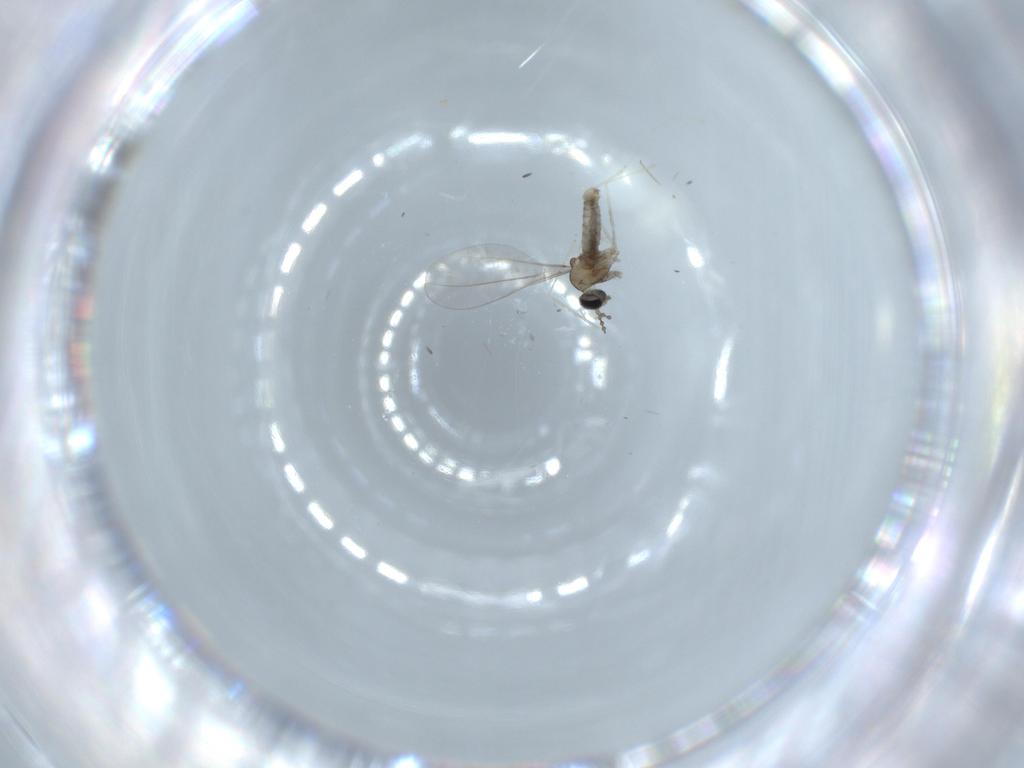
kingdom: Animalia
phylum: Arthropoda
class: Insecta
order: Diptera
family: Cecidomyiidae
